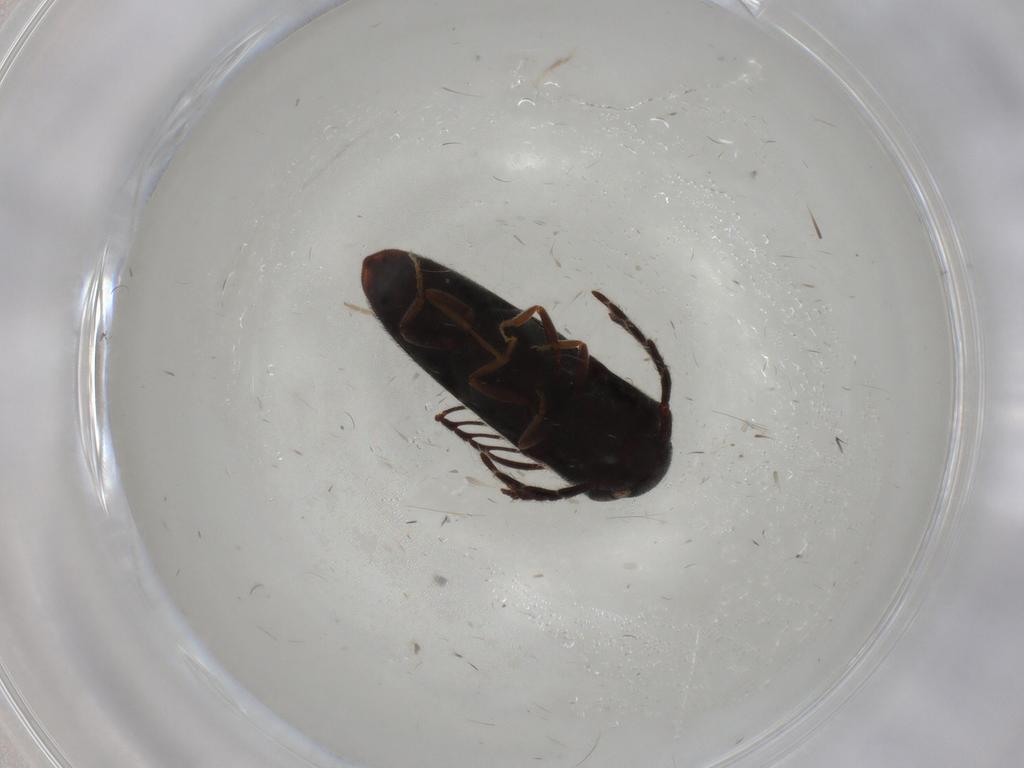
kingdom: Animalia
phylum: Arthropoda
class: Insecta
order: Coleoptera
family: Eucnemidae
